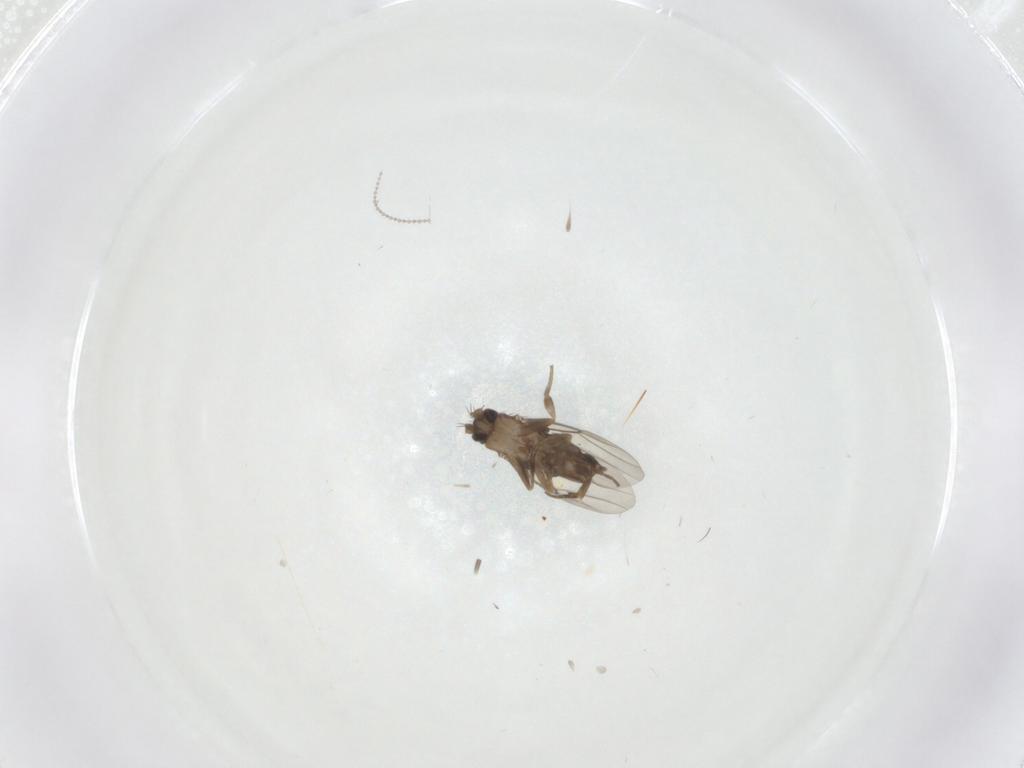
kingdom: Animalia
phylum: Arthropoda
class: Insecta
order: Diptera
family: Phoridae
